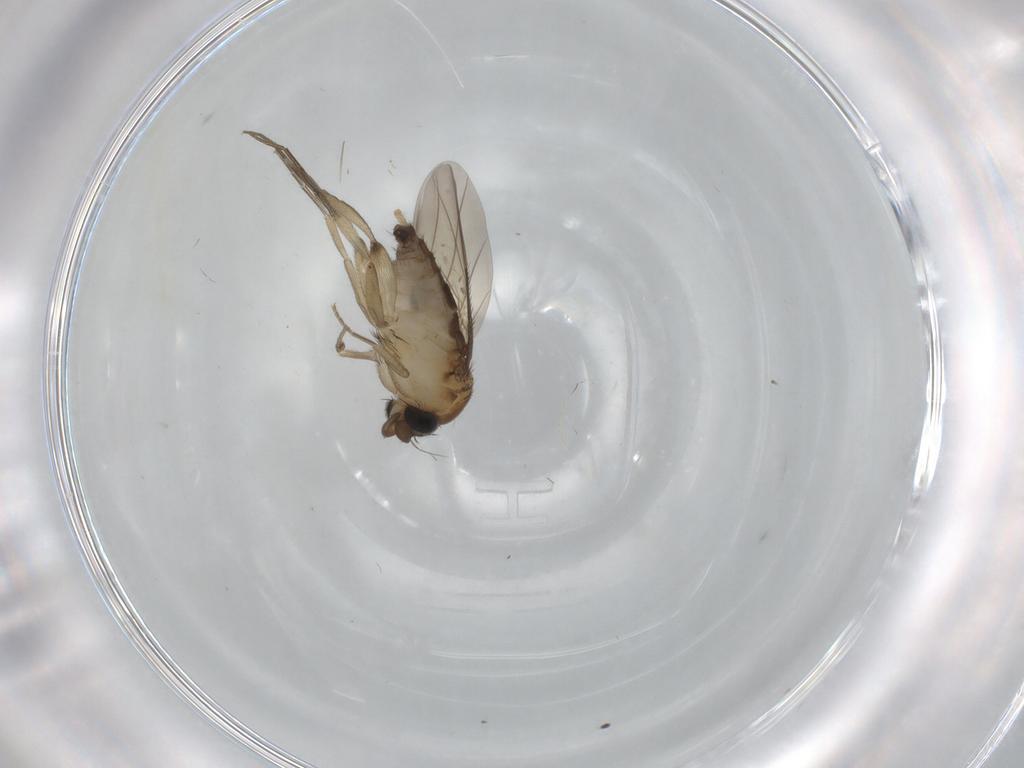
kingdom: Animalia
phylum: Arthropoda
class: Insecta
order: Diptera
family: Phoridae
